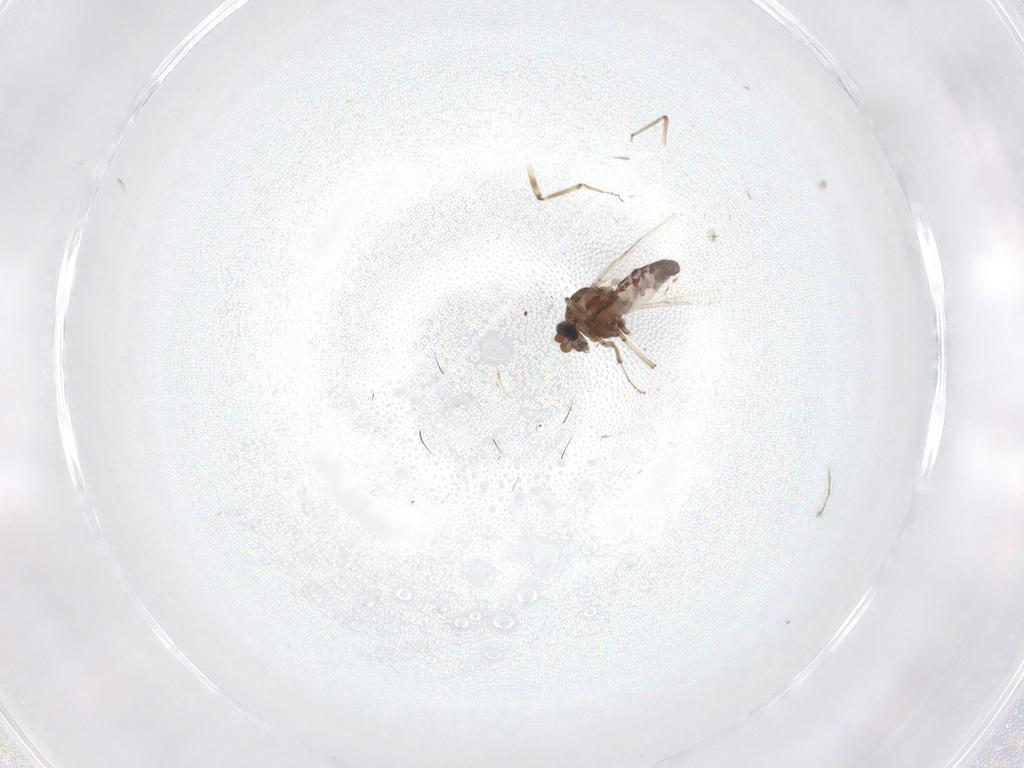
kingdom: Animalia
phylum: Arthropoda
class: Insecta
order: Diptera
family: Ceratopogonidae
